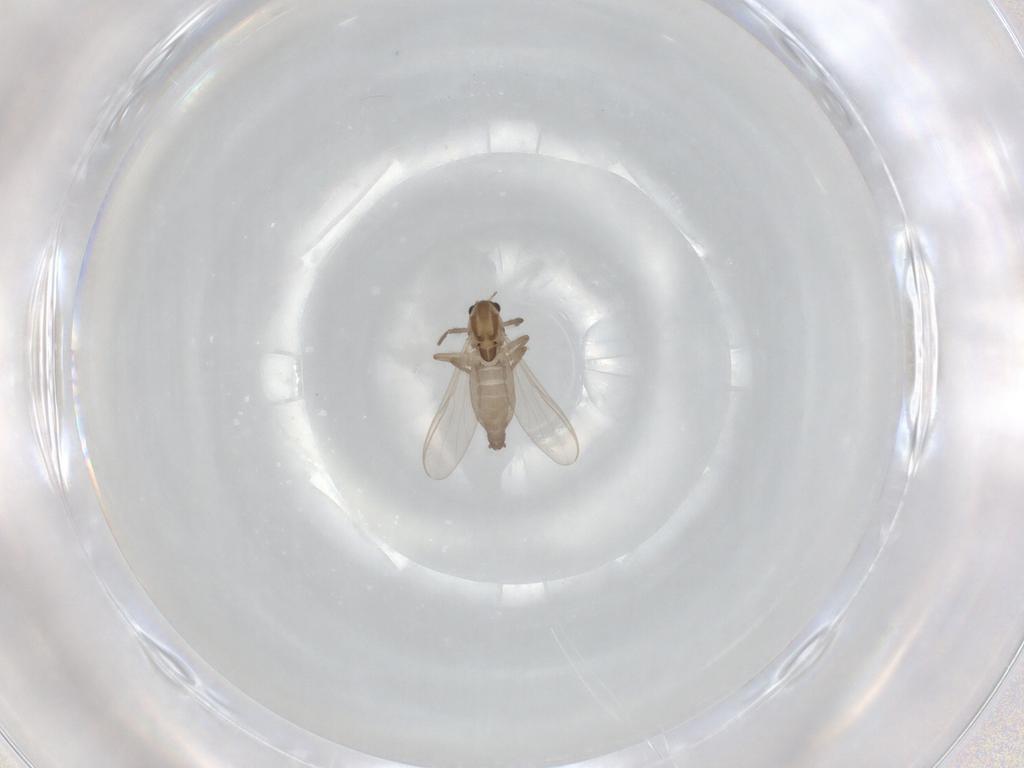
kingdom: Animalia
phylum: Arthropoda
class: Insecta
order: Diptera
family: Chironomidae
